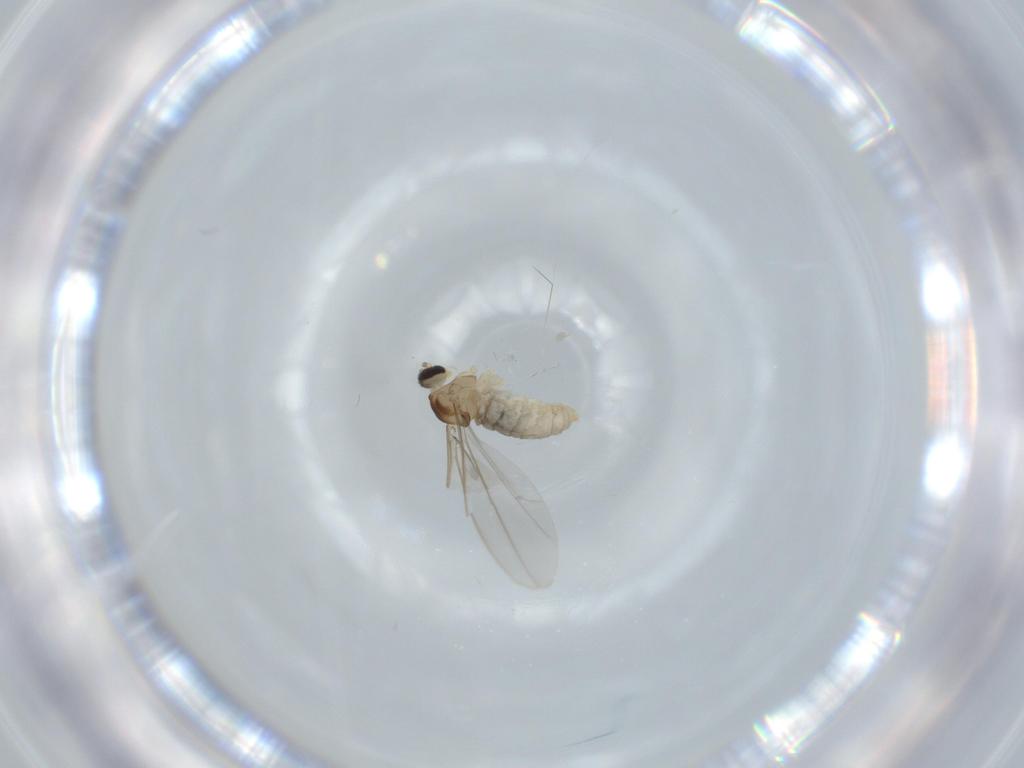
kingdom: Animalia
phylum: Arthropoda
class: Insecta
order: Diptera
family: Cecidomyiidae
